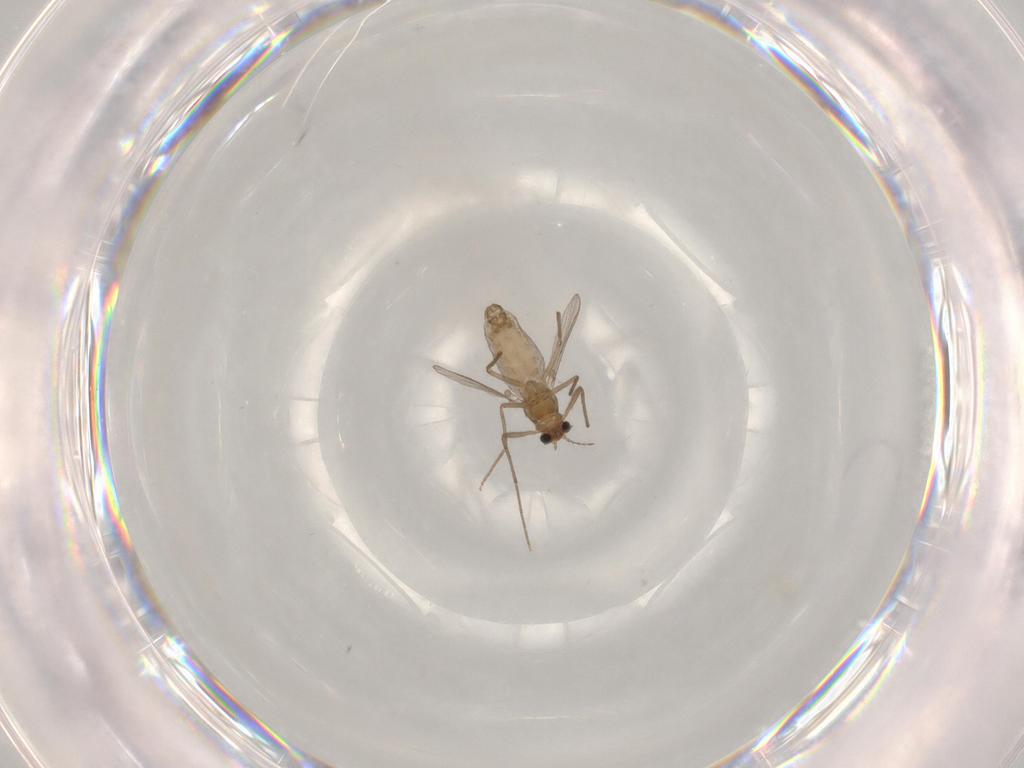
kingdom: Animalia
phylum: Arthropoda
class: Insecta
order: Diptera
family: Chironomidae
